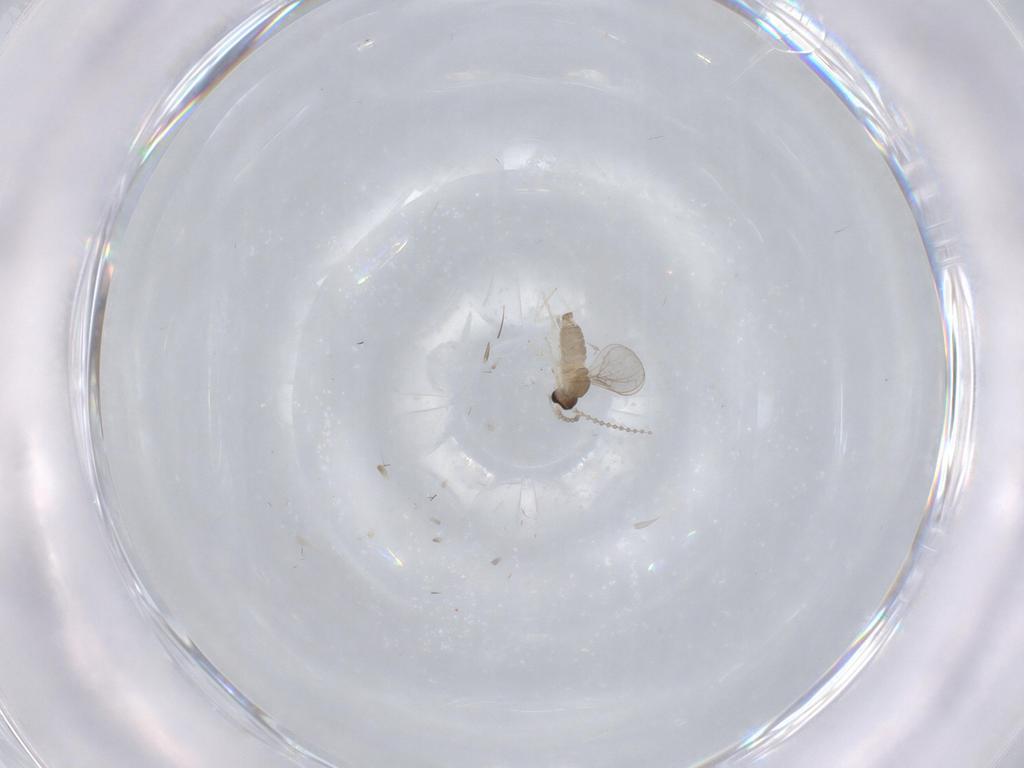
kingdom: Animalia
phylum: Arthropoda
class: Insecta
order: Diptera
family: Cecidomyiidae
